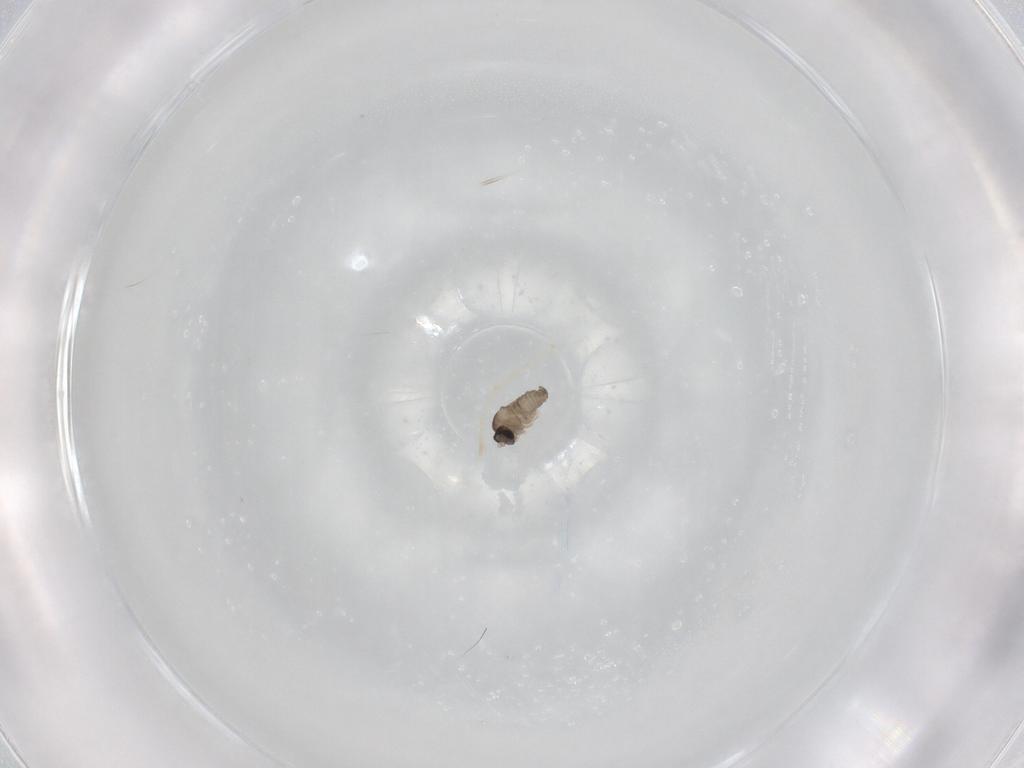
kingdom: Animalia
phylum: Arthropoda
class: Insecta
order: Diptera
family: Cecidomyiidae
